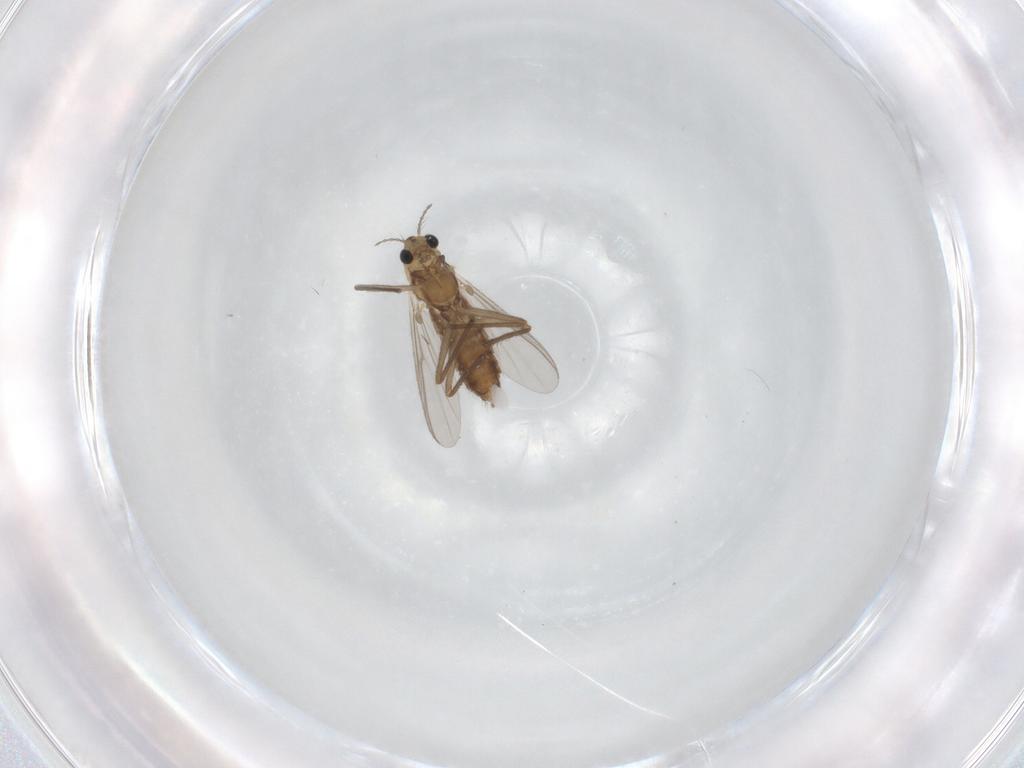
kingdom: Animalia
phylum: Arthropoda
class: Insecta
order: Diptera
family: Chironomidae
